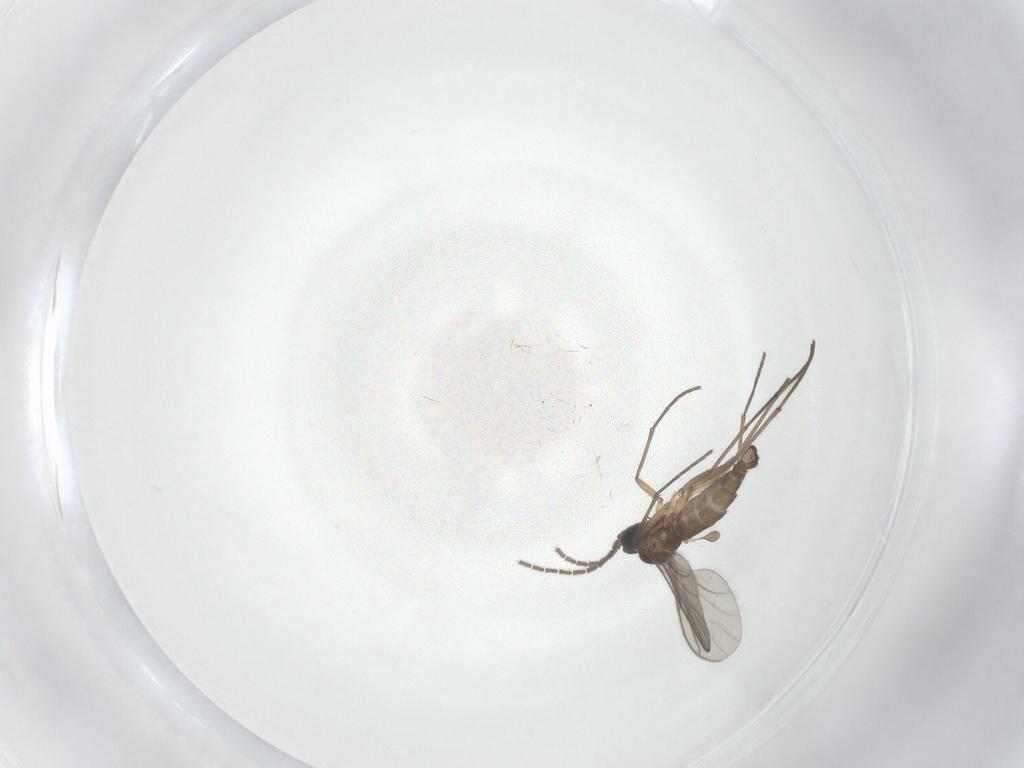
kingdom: Animalia
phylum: Arthropoda
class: Insecta
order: Diptera
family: Sciaridae
